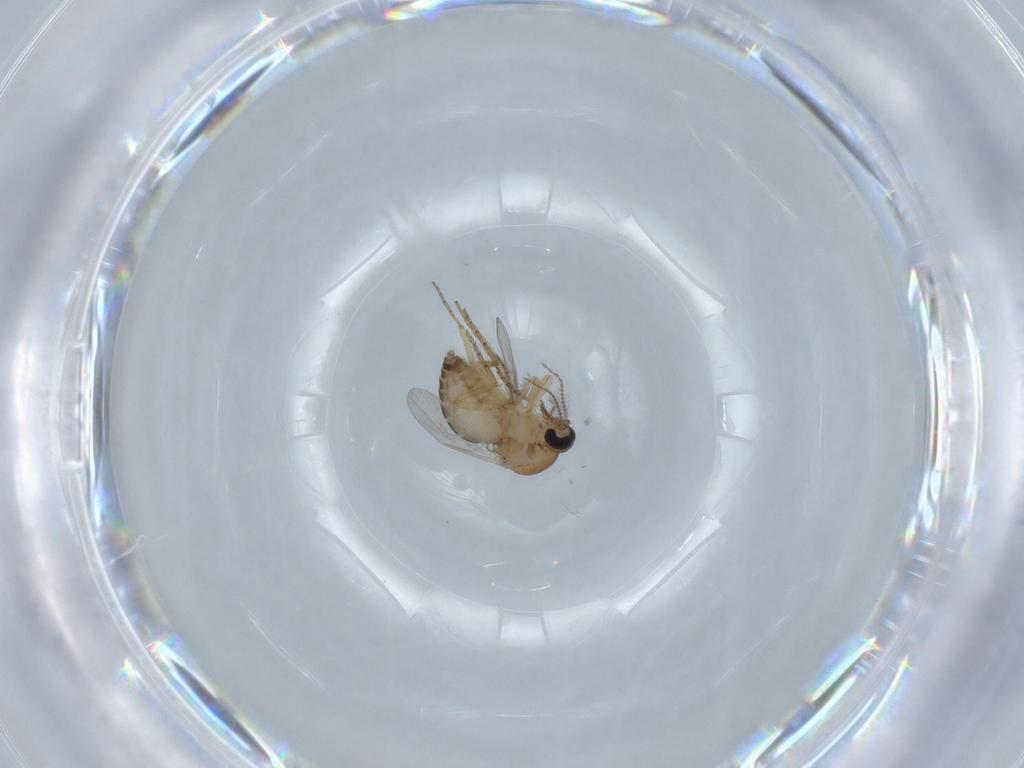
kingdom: Animalia
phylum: Arthropoda
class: Insecta
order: Diptera
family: Ceratopogonidae
